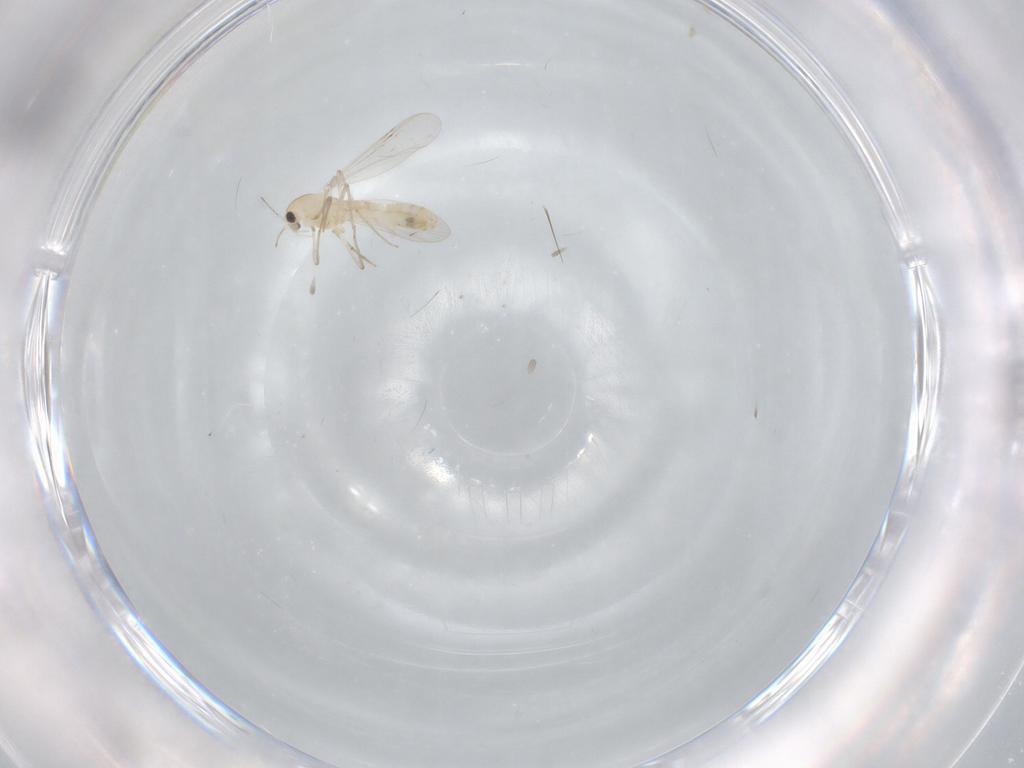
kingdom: Animalia
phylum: Arthropoda
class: Insecta
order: Diptera
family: Cecidomyiidae
